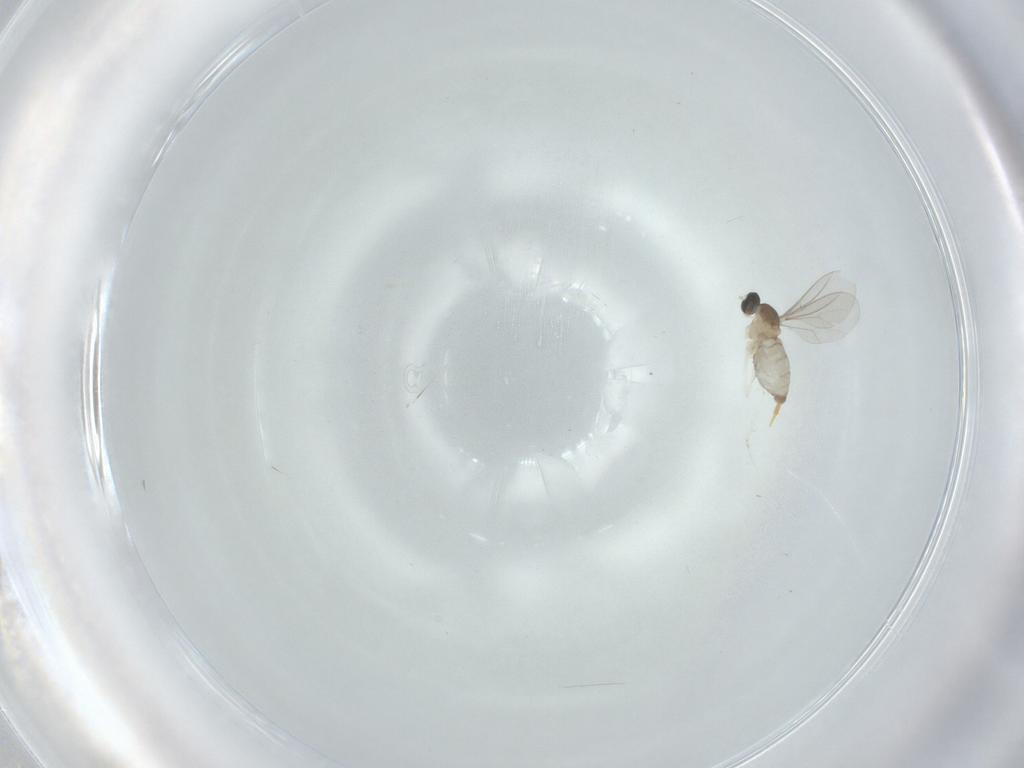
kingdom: Animalia
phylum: Arthropoda
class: Insecta
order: Diptera
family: Cecidomyiidae
